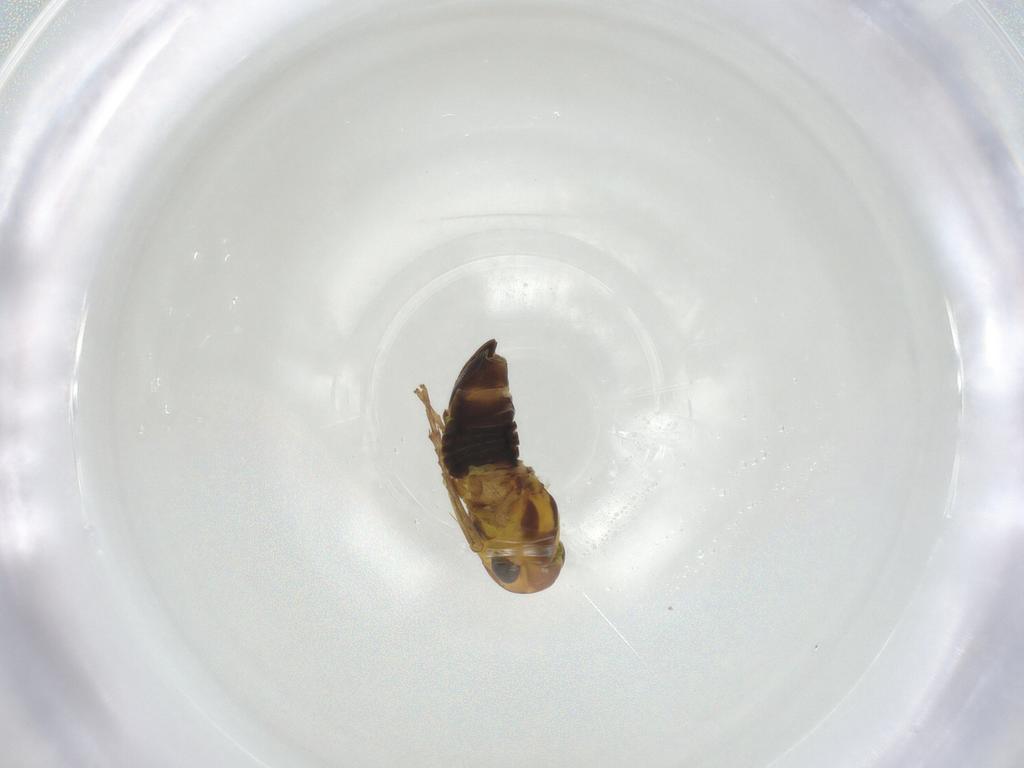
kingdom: Animalia
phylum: Arthropoda
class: Insecta
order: Hemiptera
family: Cicadellidae
